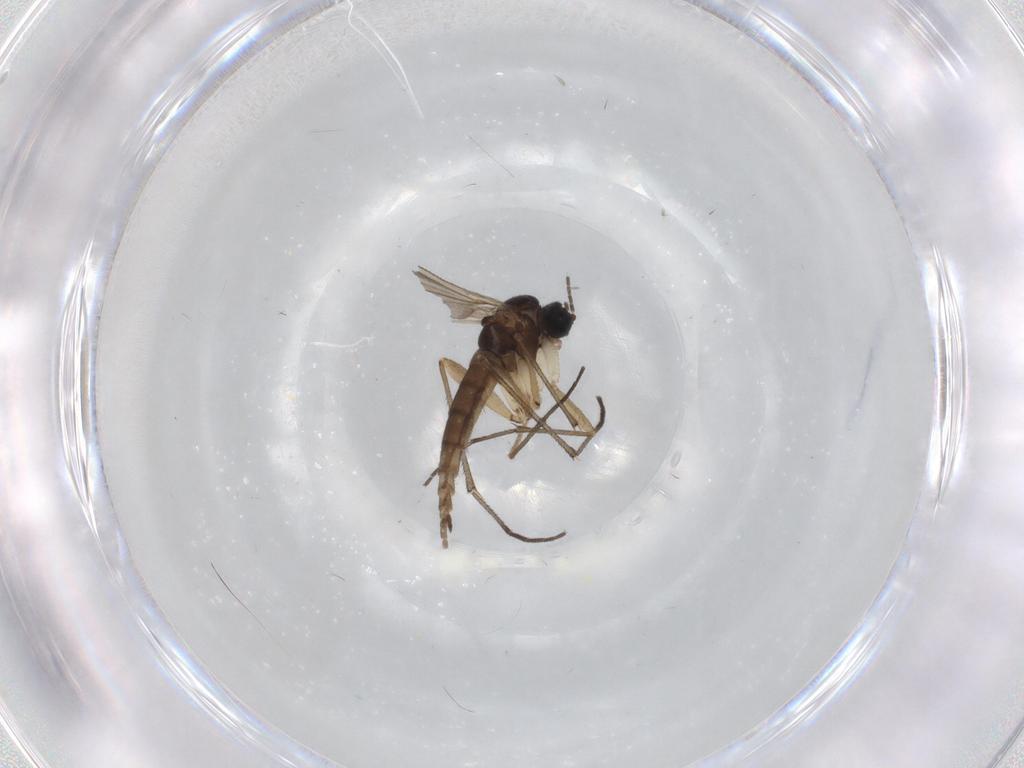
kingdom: Animalia
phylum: Arthropoda
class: Insecta
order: Diptera
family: Sciaridae
